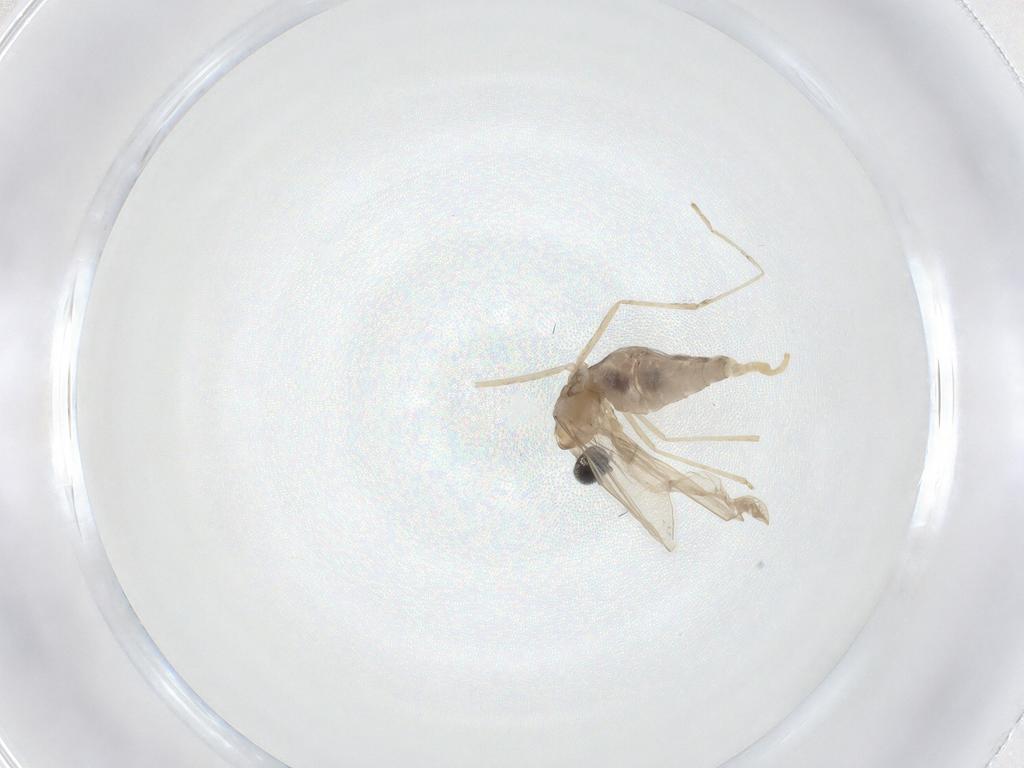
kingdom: Animalia
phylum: Arthropoda
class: Insecta
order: Diptera
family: Cecidomyiidae
